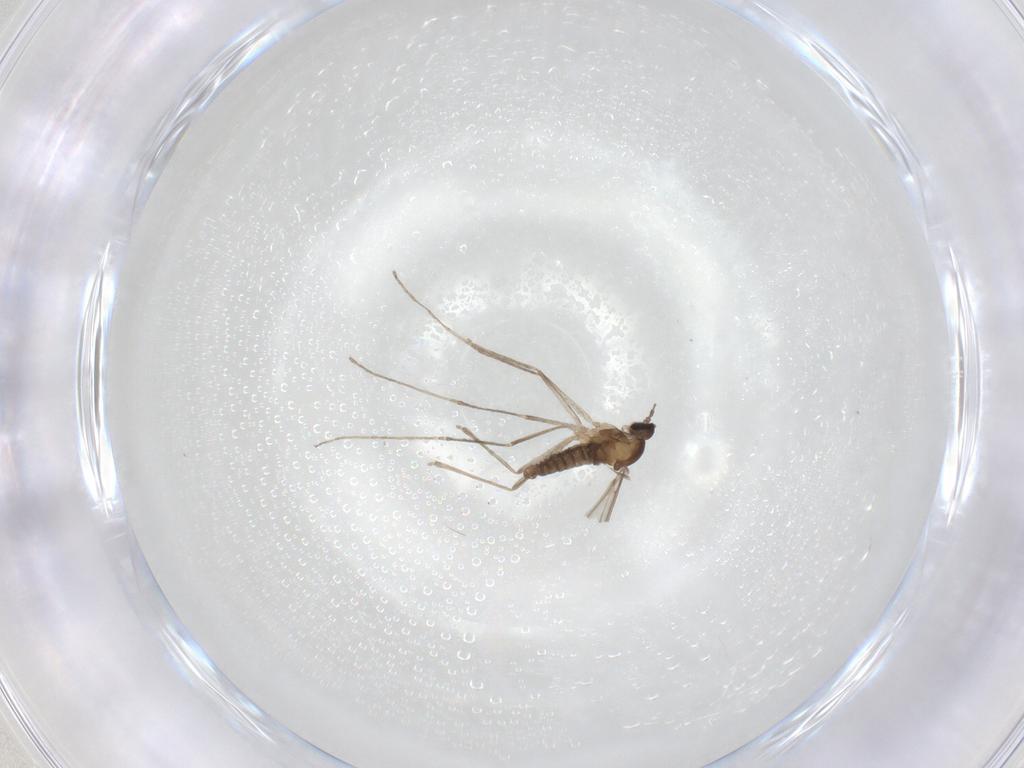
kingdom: Animalia
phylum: Arthropoda
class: Insecta
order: Diptera
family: Cecidomyiidae
